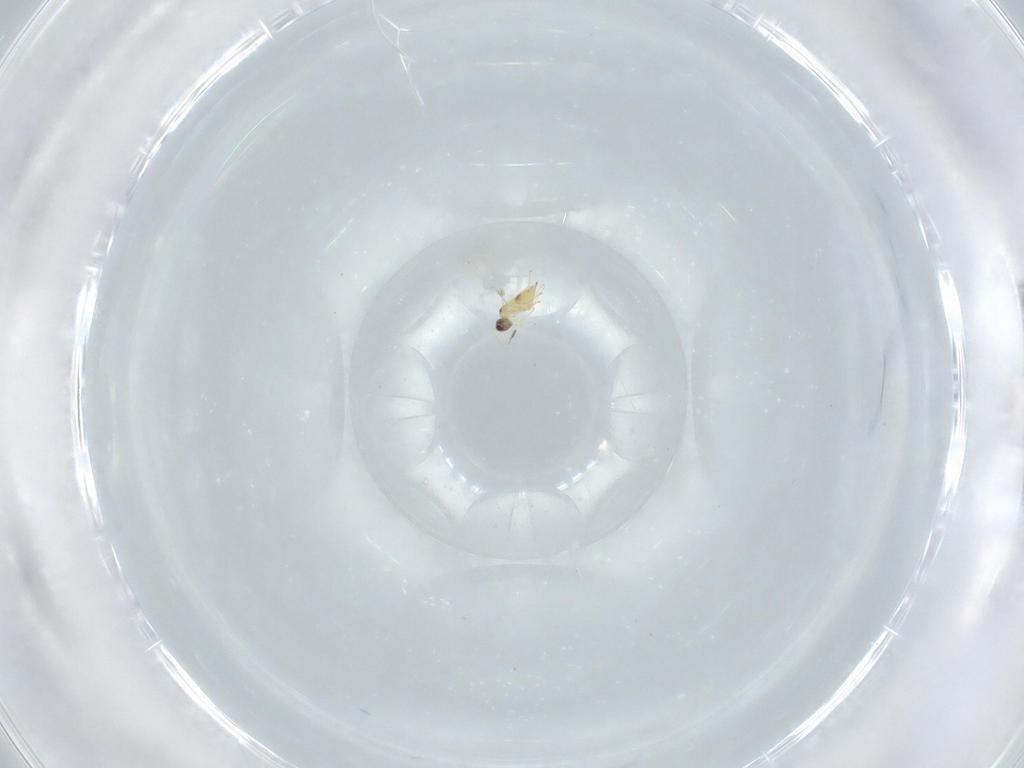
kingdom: Animalia
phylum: Arthropoda
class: Insecta
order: Hymenoptera
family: Mymaridae
